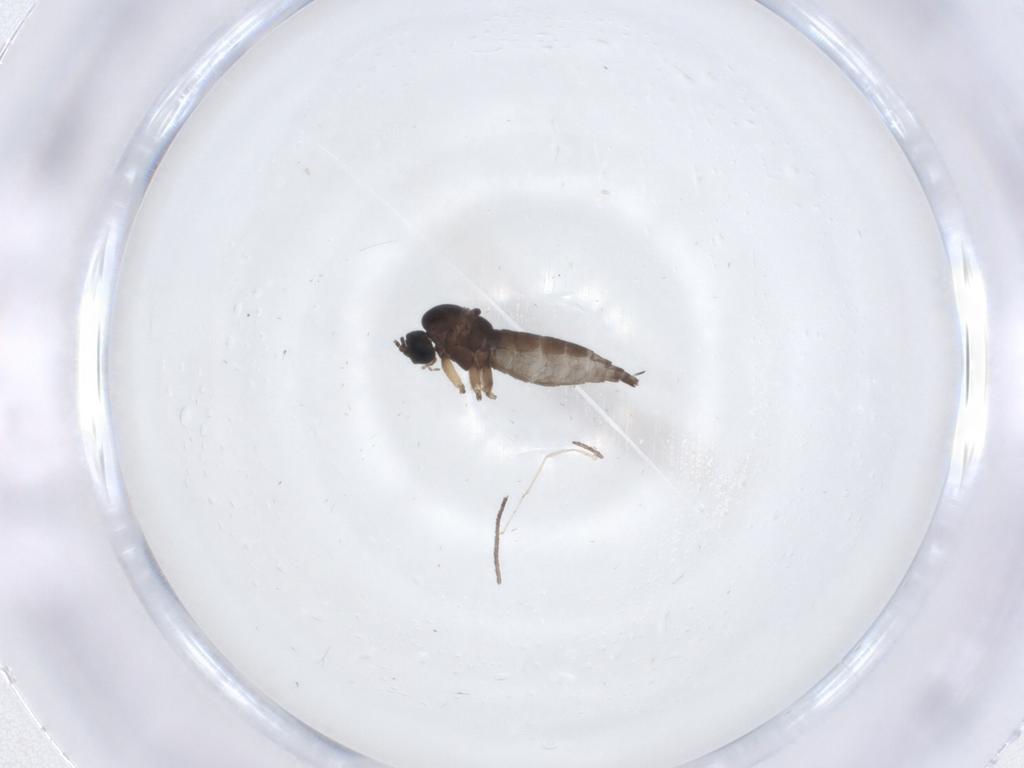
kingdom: Animalia
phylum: Arthropoda
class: Insecta
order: Diptera
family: Sciaridae
